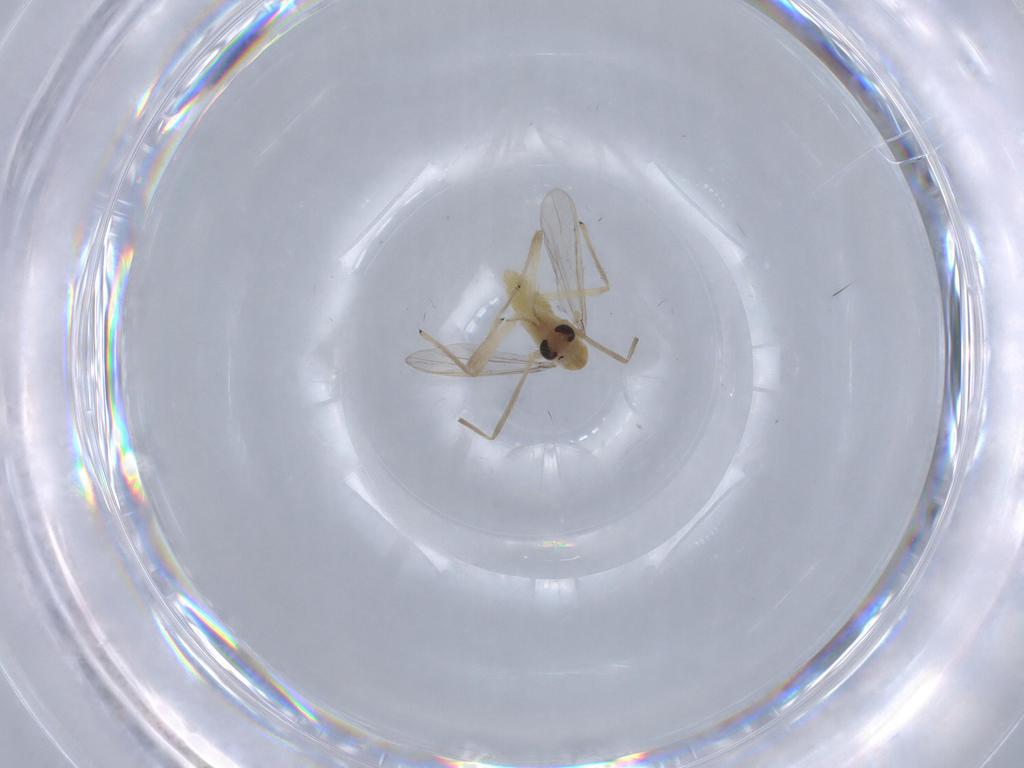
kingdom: Animalia
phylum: Arthropoda
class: Insecta
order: Diptera
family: Chironomidae
